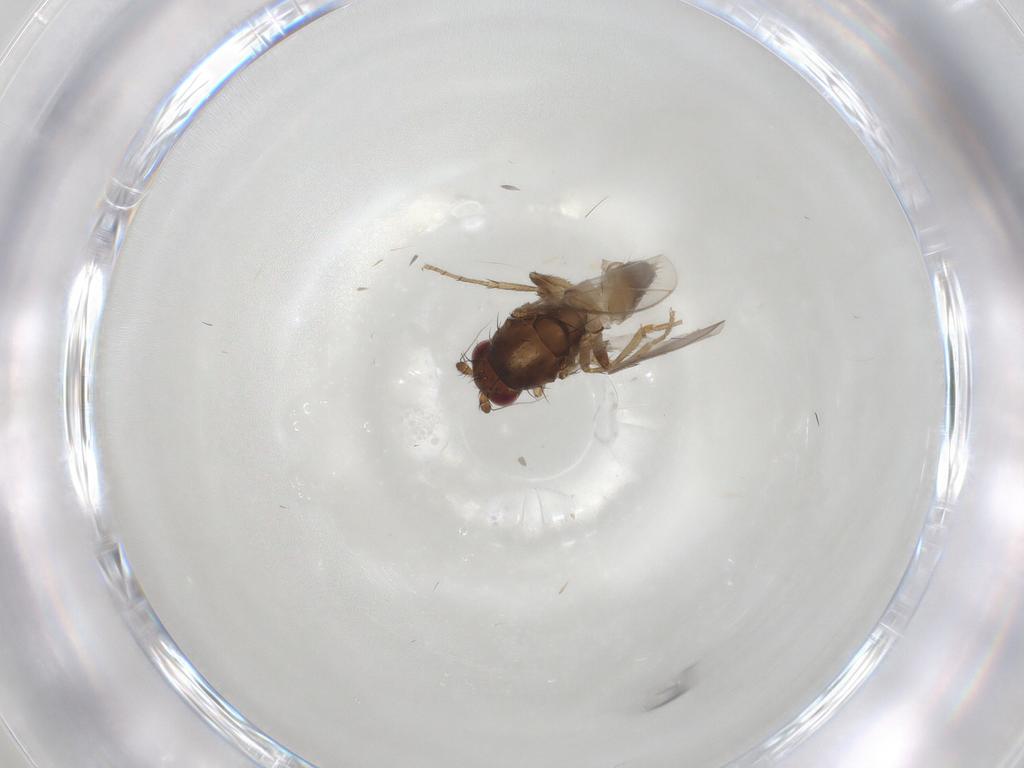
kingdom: Animalia
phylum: Arthropoda
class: Insecta
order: Diptera
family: Sphaeroceridae
